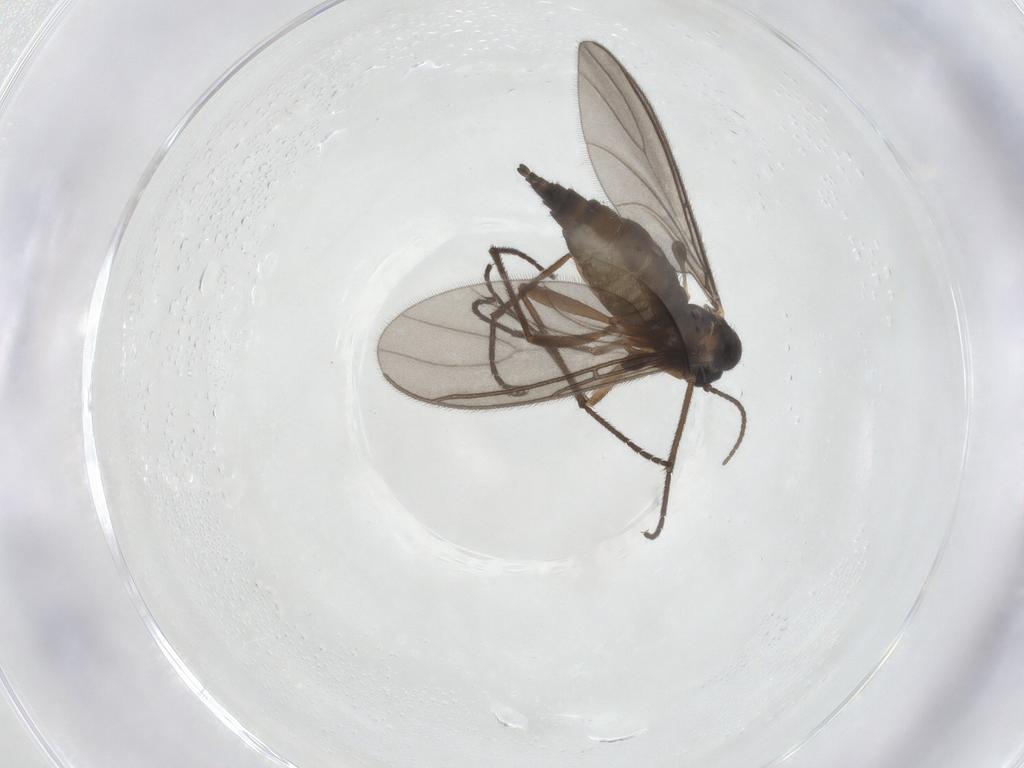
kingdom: Animalia
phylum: Arthropoda
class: Insecta
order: Diptera
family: Sciaridae
